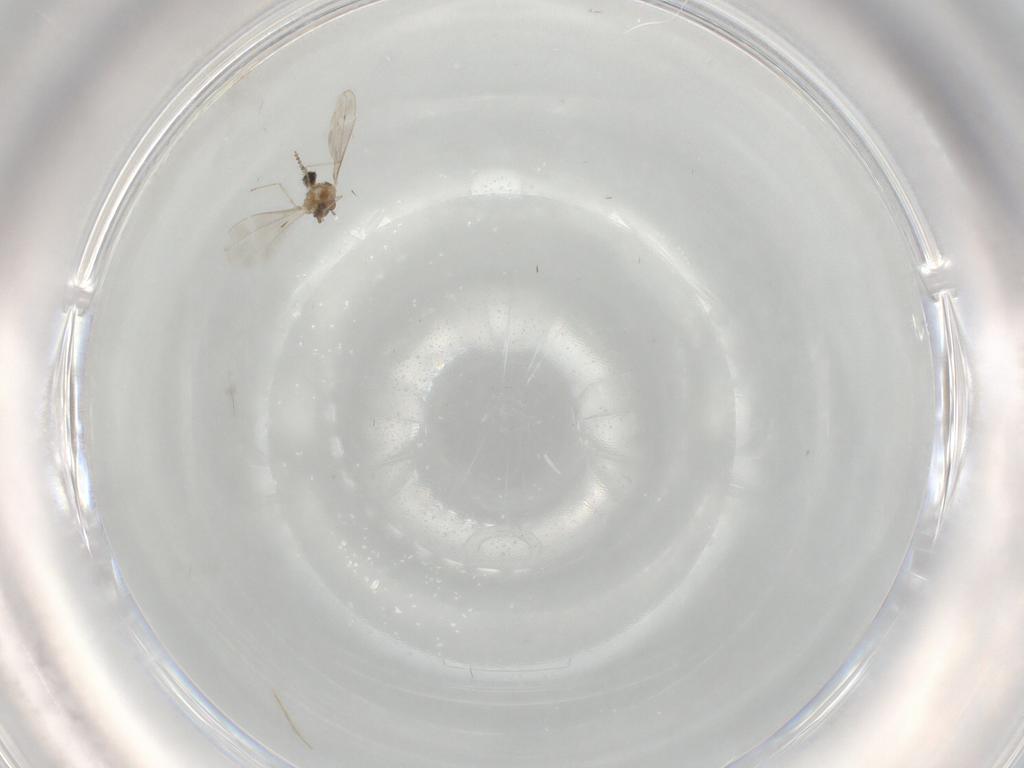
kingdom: Animalia
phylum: Arthropoda
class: Insecta
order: Diptera
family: Cecidomyiidae
